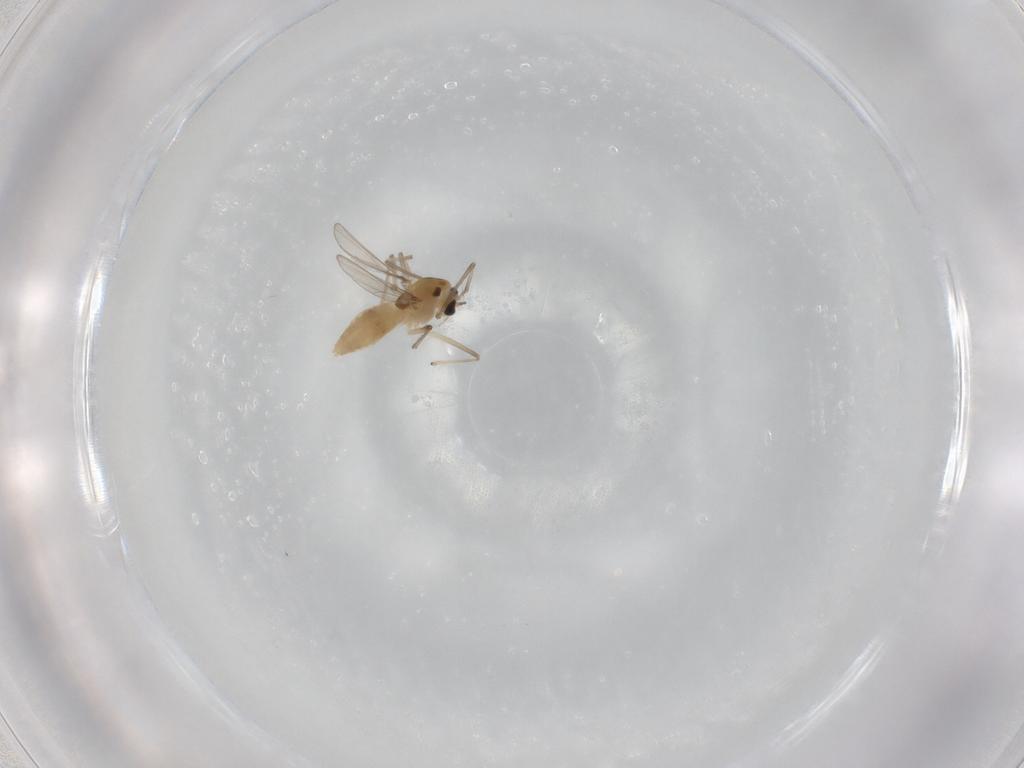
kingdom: Animalia
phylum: Arthropoda
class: Insecta
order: Diptera
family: Chironomidae
